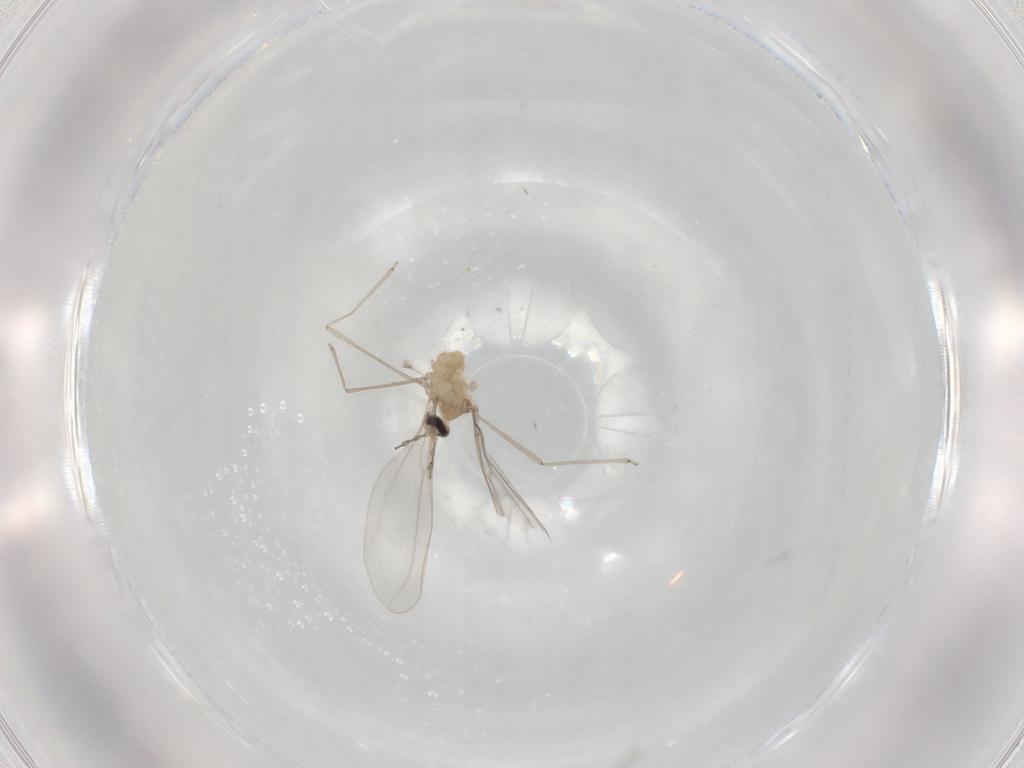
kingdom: Animalia
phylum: Arthropoda
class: Insecta
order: Diptera
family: Cecidomyiidae
